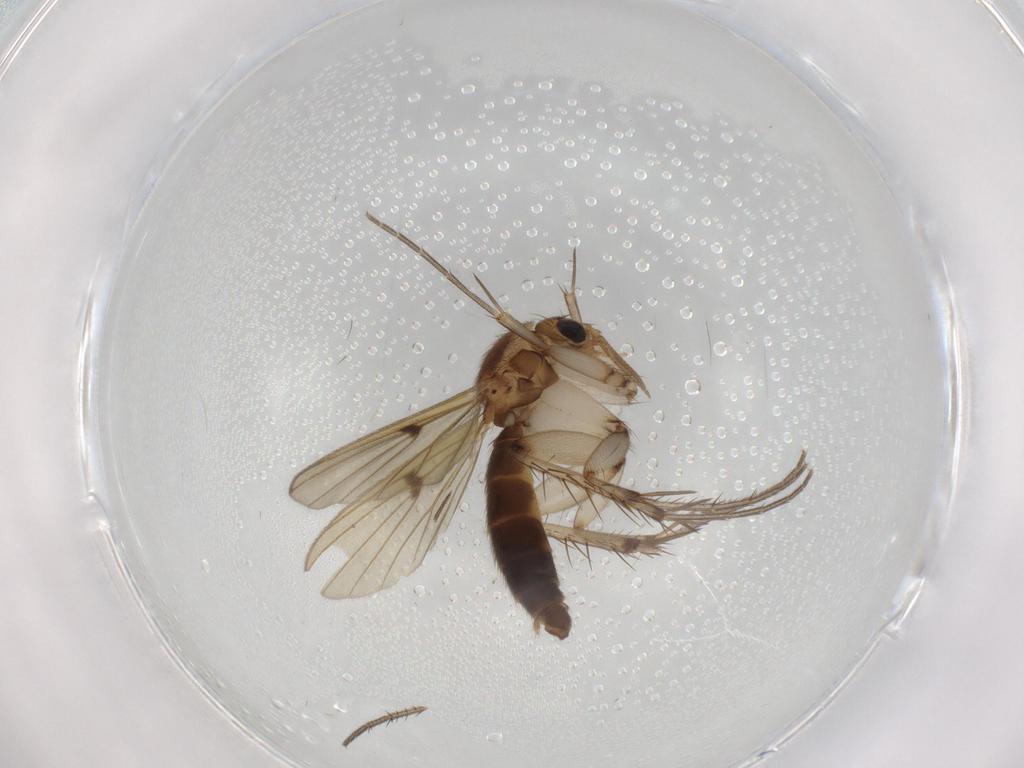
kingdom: Animalia
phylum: Arthropoda
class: Insecta
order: Diptera
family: Mycetophilidae
